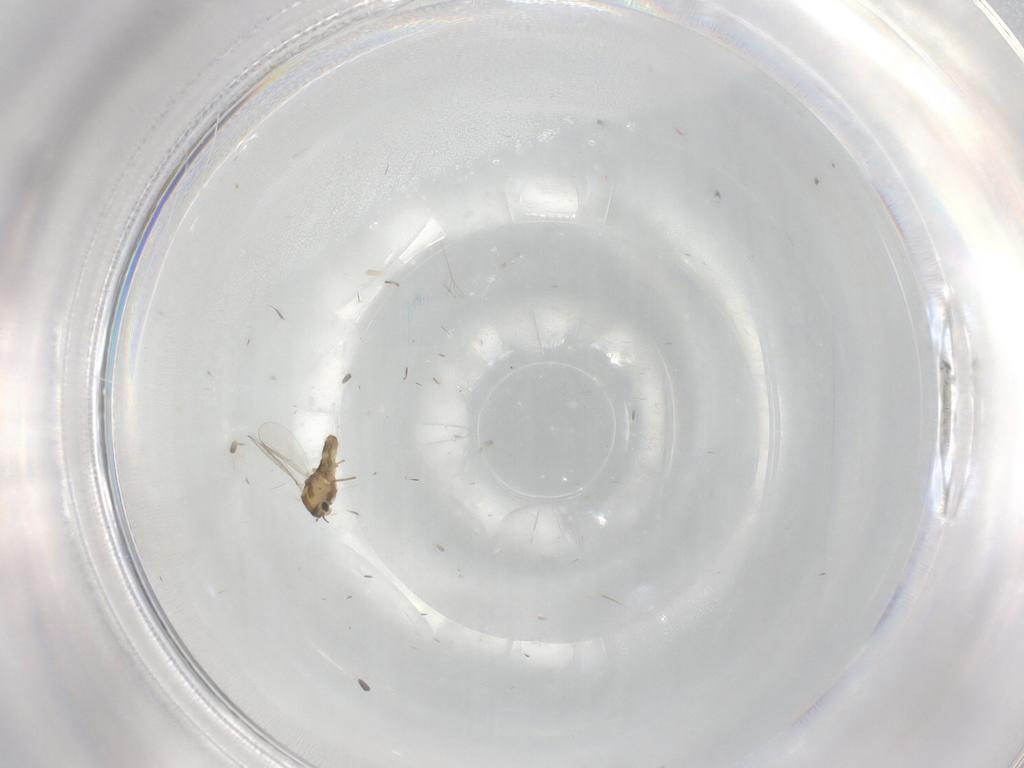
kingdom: Animalia
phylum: Arthropoda
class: Insecta
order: Diptera
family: Chironomidae
